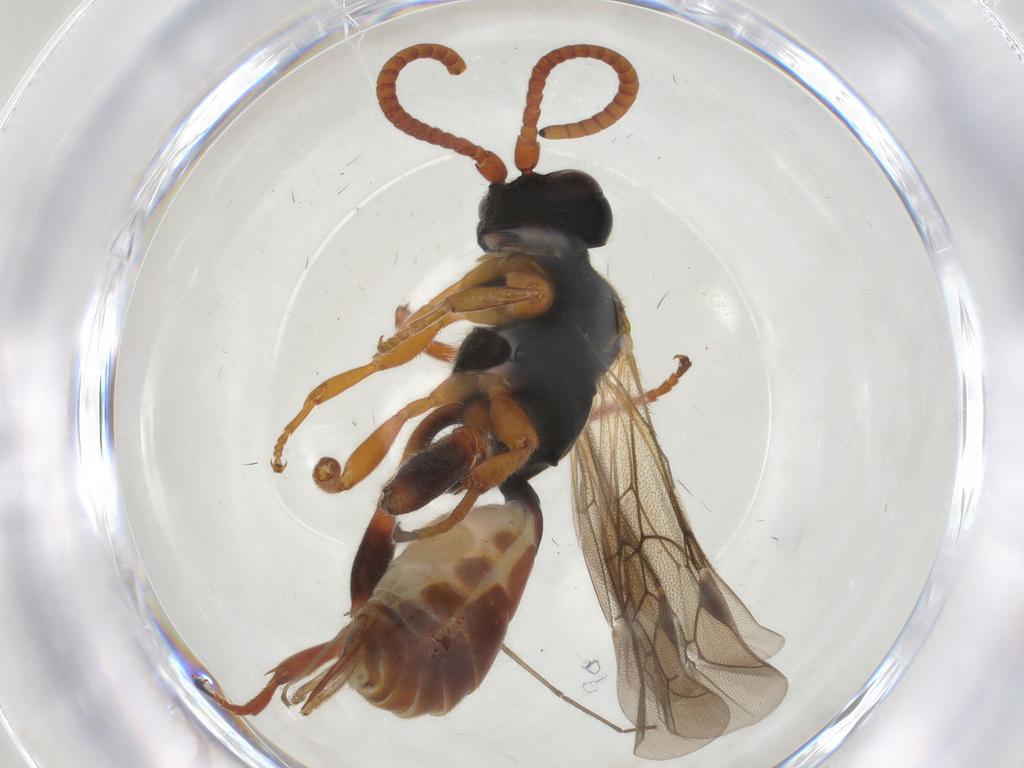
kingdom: Animalia
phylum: Arthropoda
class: Insecta
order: Hymenoptera
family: Ichneumonidae
